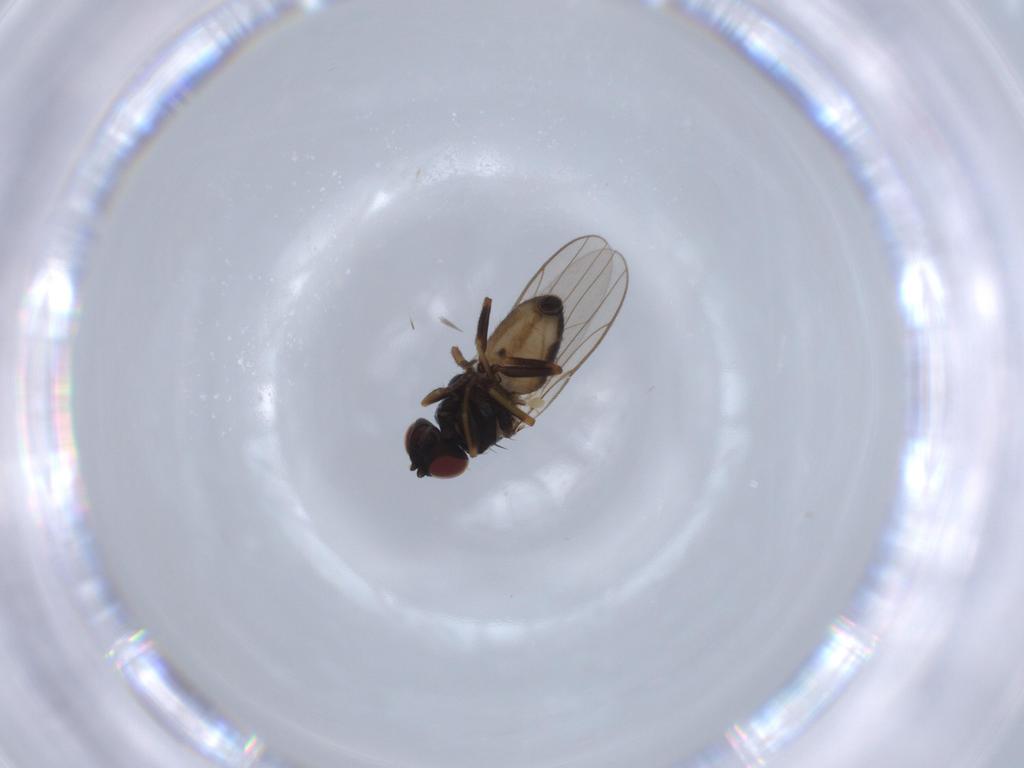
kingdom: Animalia
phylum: Arthropoda
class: Insecta
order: Diptera
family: Chloropidae
